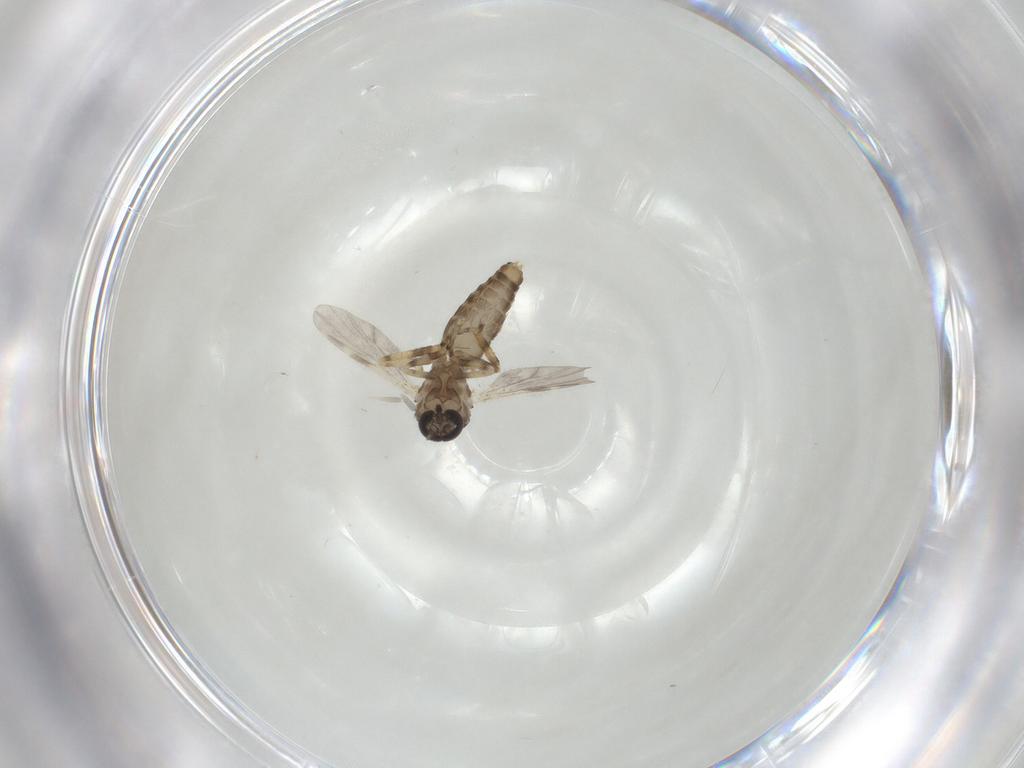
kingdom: Animalia
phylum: Arthropoda
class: Insecta
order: Diptera
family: Ceratopogonidae
